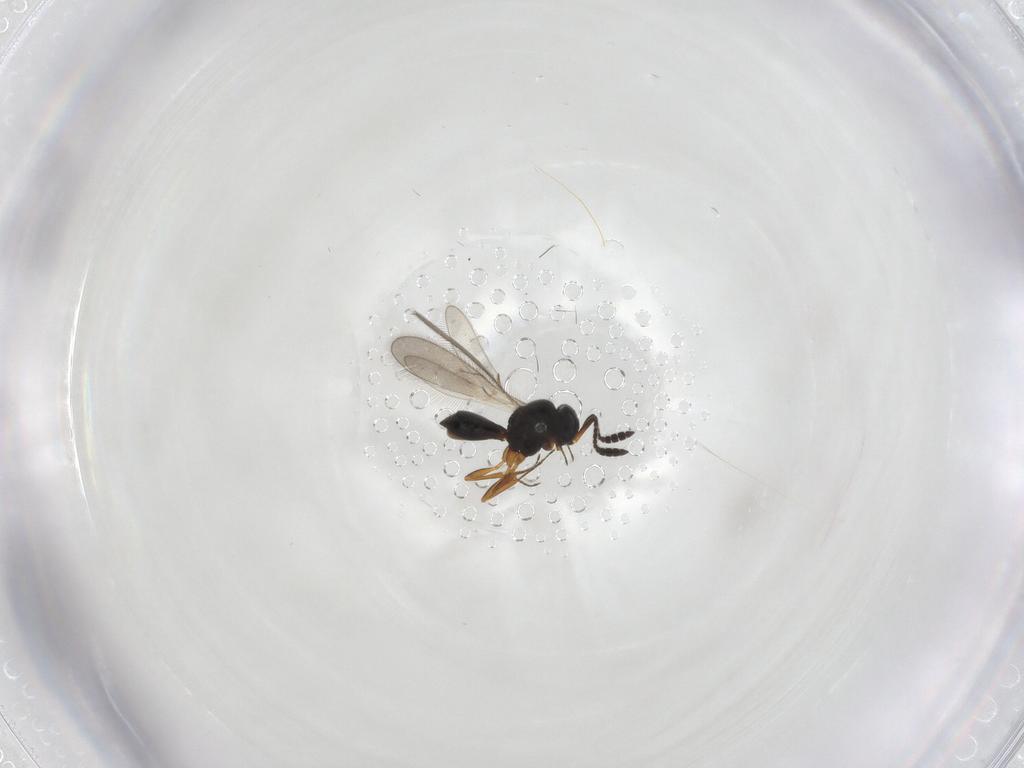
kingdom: Animalia
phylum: Arthropoda
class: Insecta
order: Hymenoptera
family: Scelionidae
